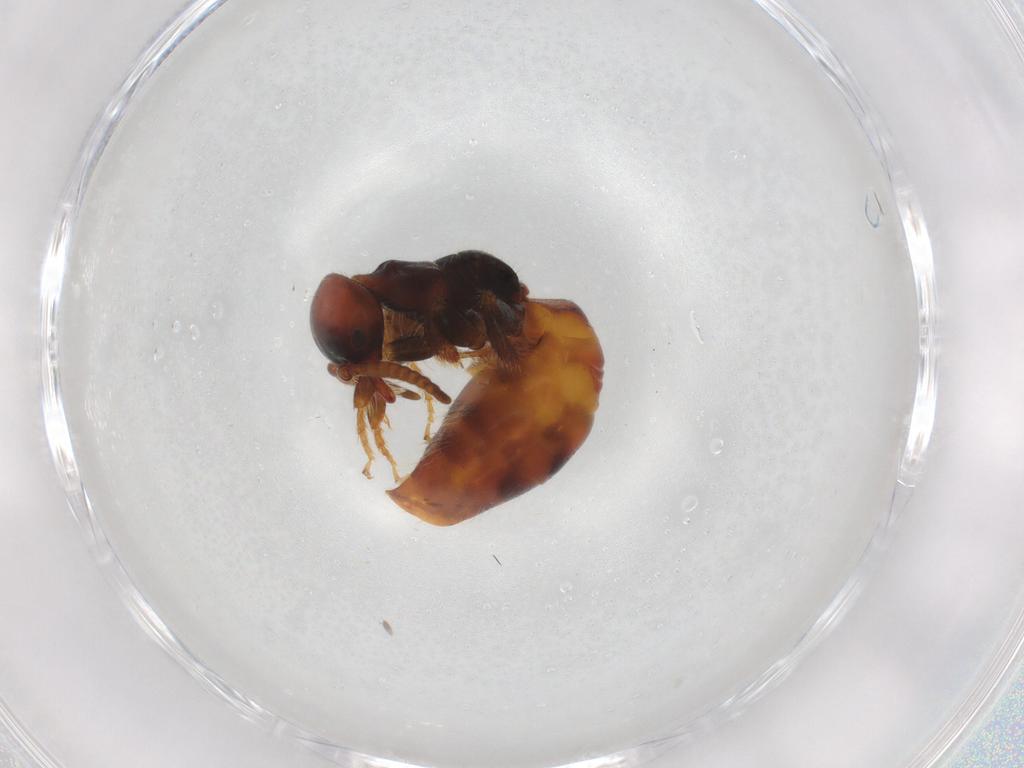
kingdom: Animalia
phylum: Arthropoda
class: Insecta
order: Hymenoptera
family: Thynnidae
